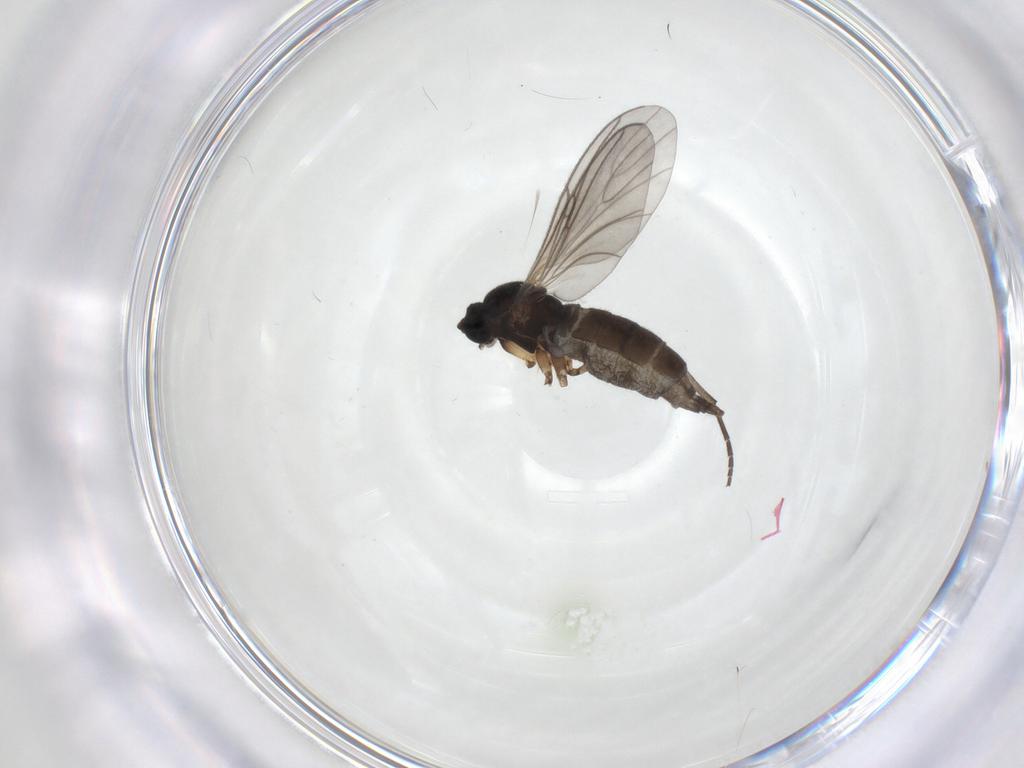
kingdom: Animalia
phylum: Arthropoda
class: Insecta
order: Diptera
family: Sciaridae
